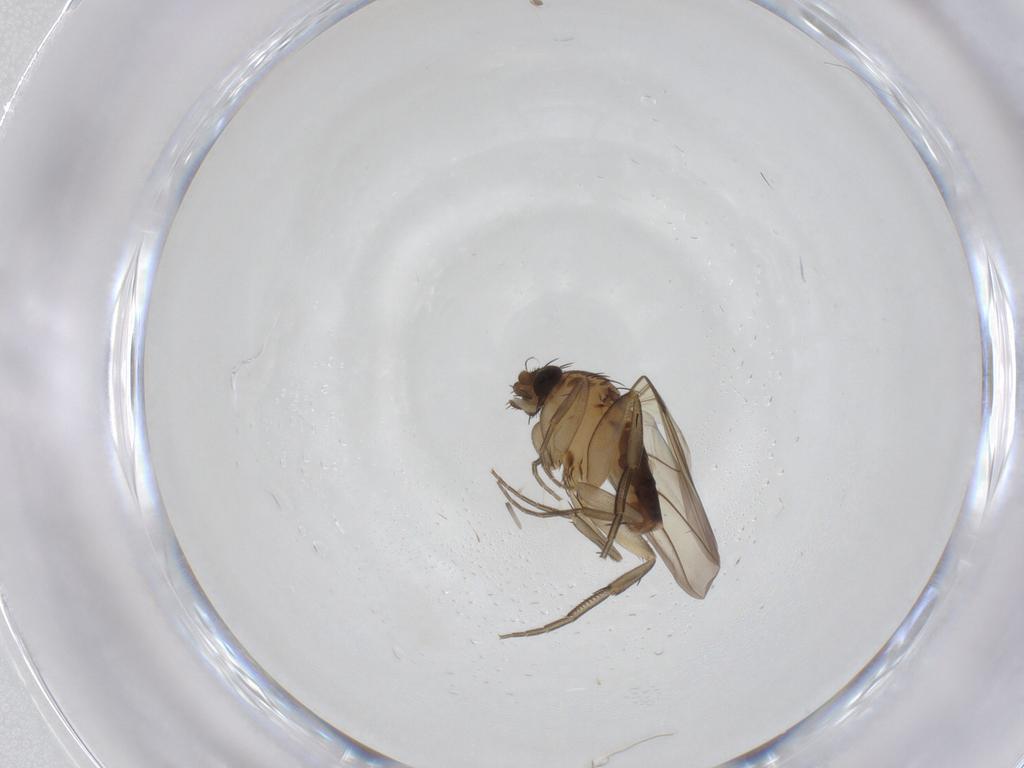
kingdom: Animalia
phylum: Arthropoda
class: Insecta
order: Diptera
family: Phoridae
